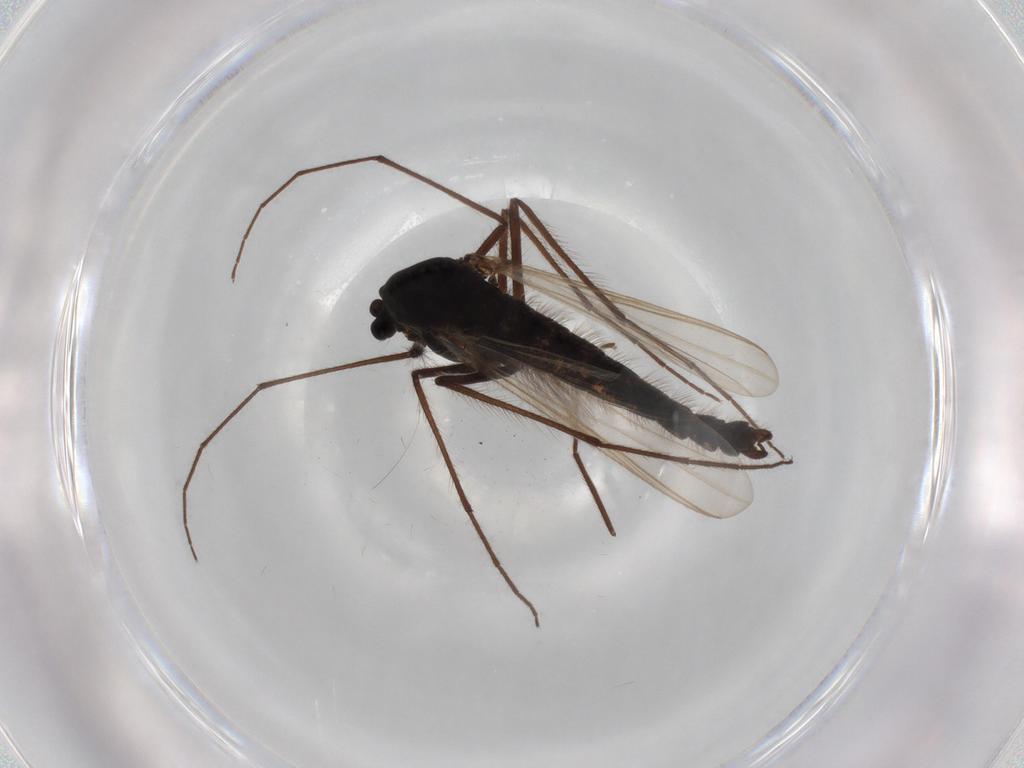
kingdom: Animalia
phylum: Arthropoda
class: Insecta
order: Diptera
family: Hybotidae
